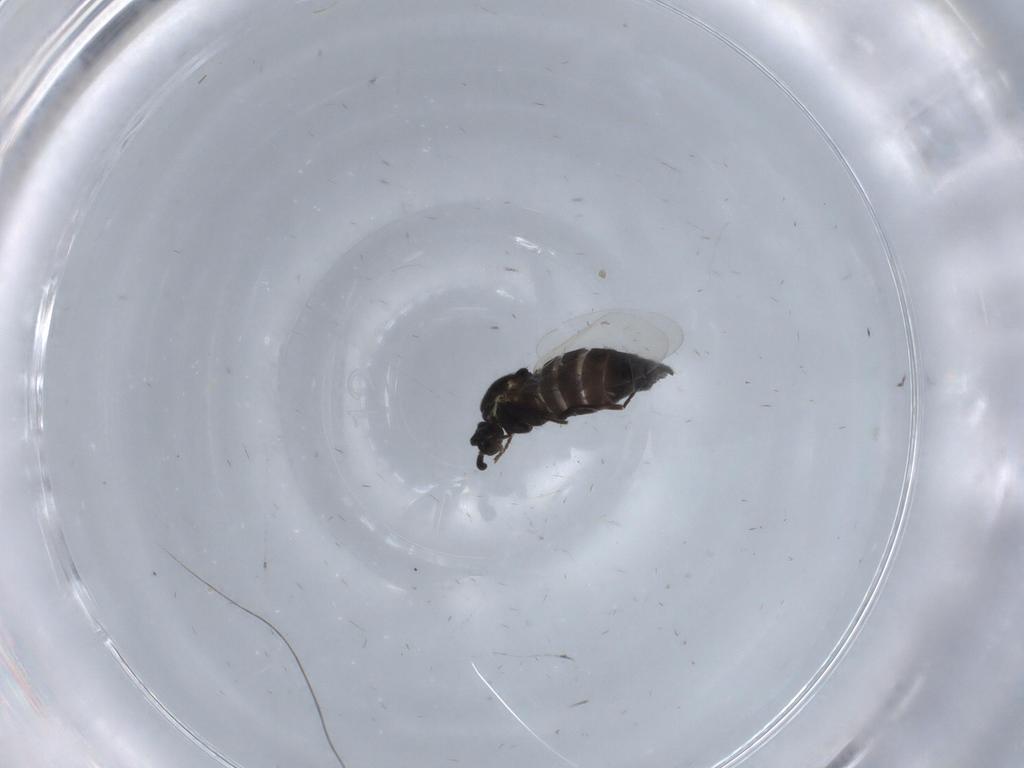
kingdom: Animalia
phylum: Arthropoda
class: Insecta
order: Diptera
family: Scatopsidae
